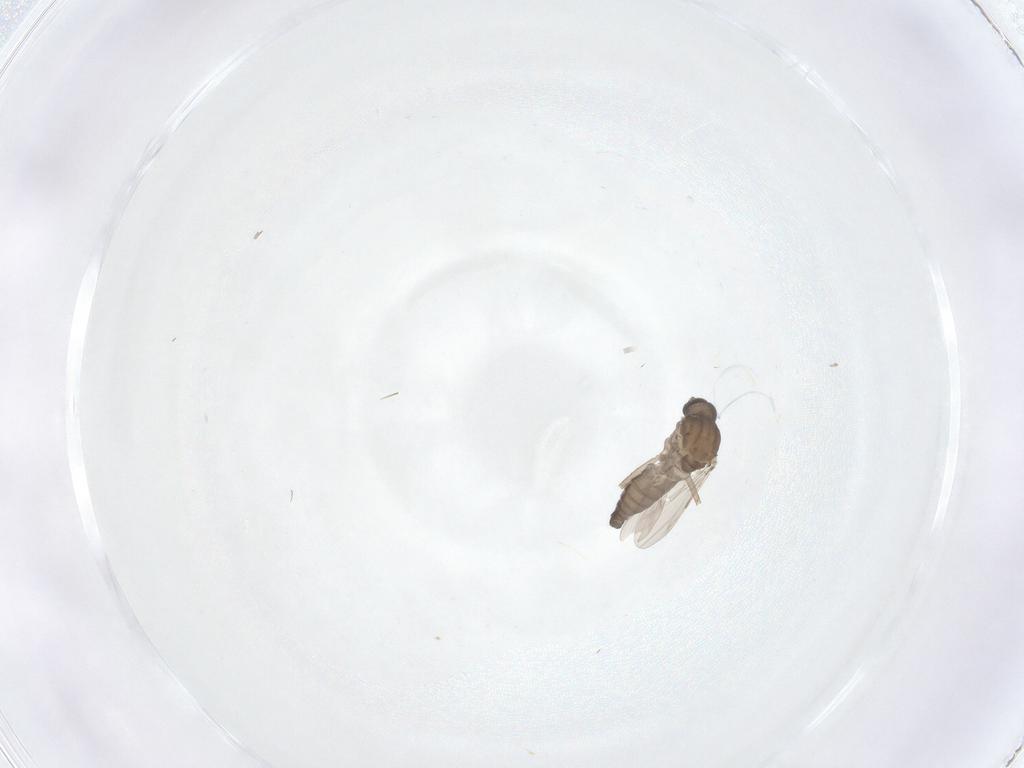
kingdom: Animalia
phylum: Arthropoda
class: Insecta
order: Diptera
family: Ceratopogonidae
